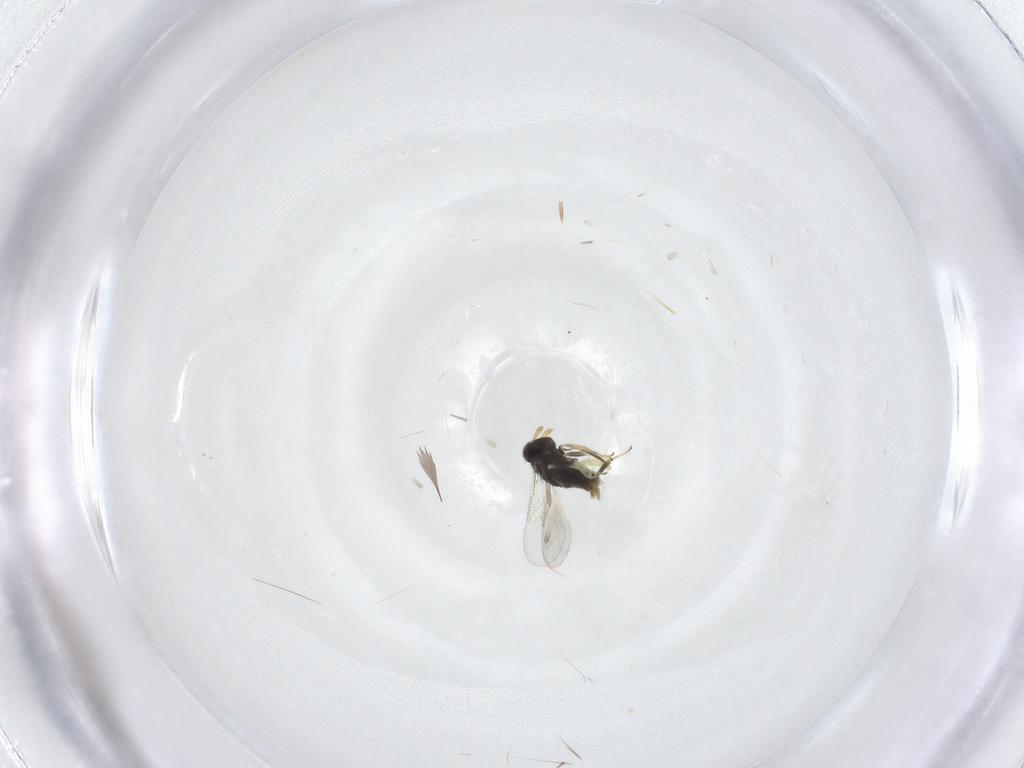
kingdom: Animalia
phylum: Arthropoda
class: Insecta
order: Hymenoptera
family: Aphelinidae
